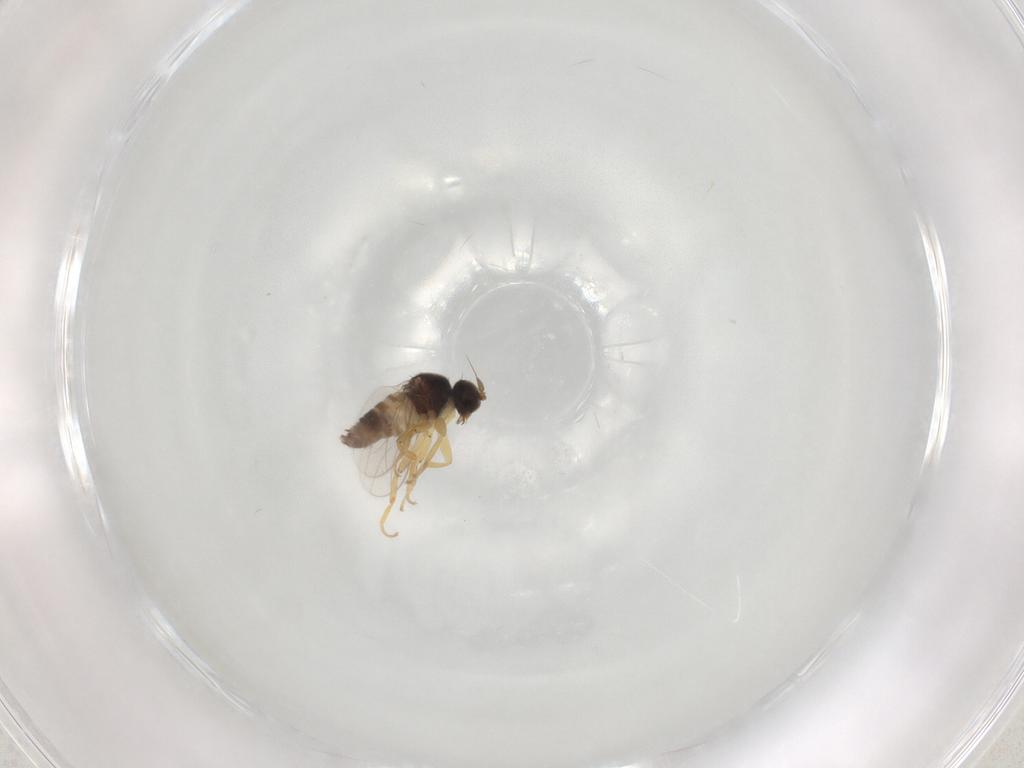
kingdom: Animalia
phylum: Arthropoda
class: Insecta
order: Diptera
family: Hybotidae
